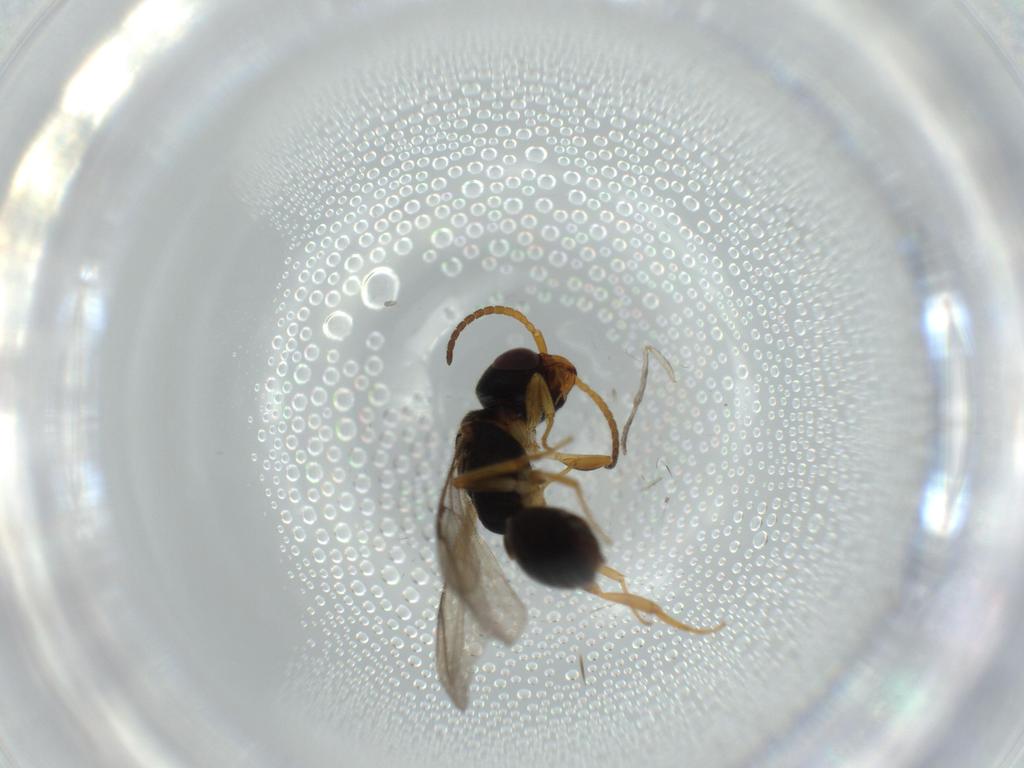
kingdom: Animalia
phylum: Arthropoda
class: Insecta
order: Hymenoptera
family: Bethylidae
